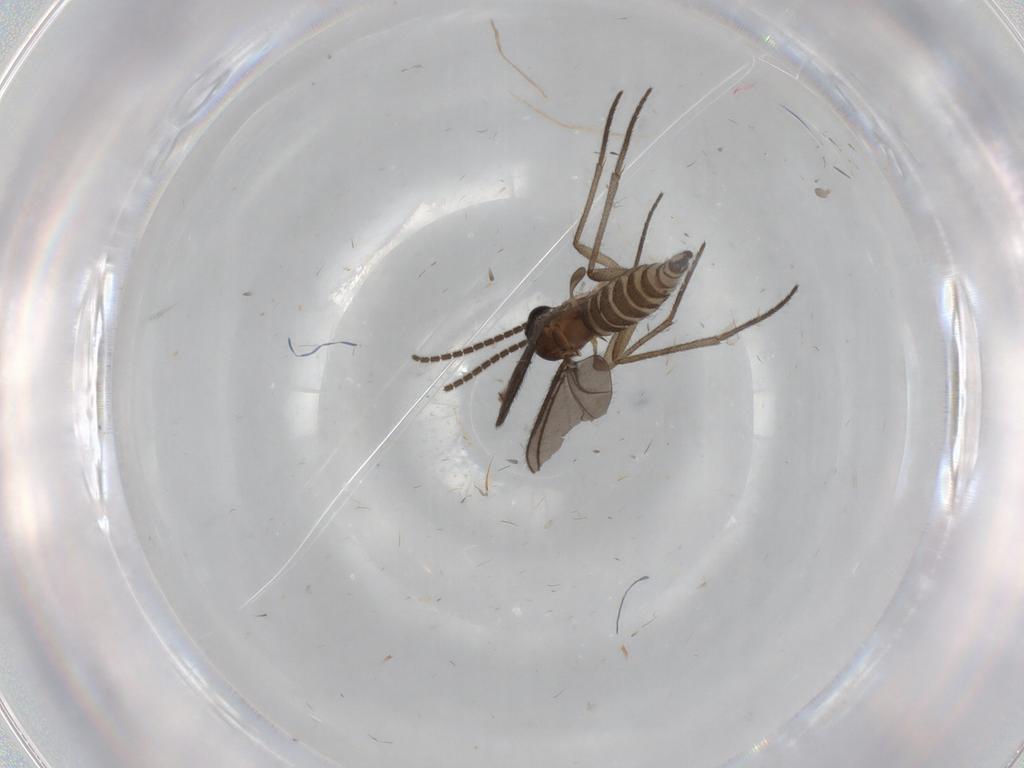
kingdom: Animalia
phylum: Arthropoda
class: Insecta
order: Diptera
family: Sciaridae
